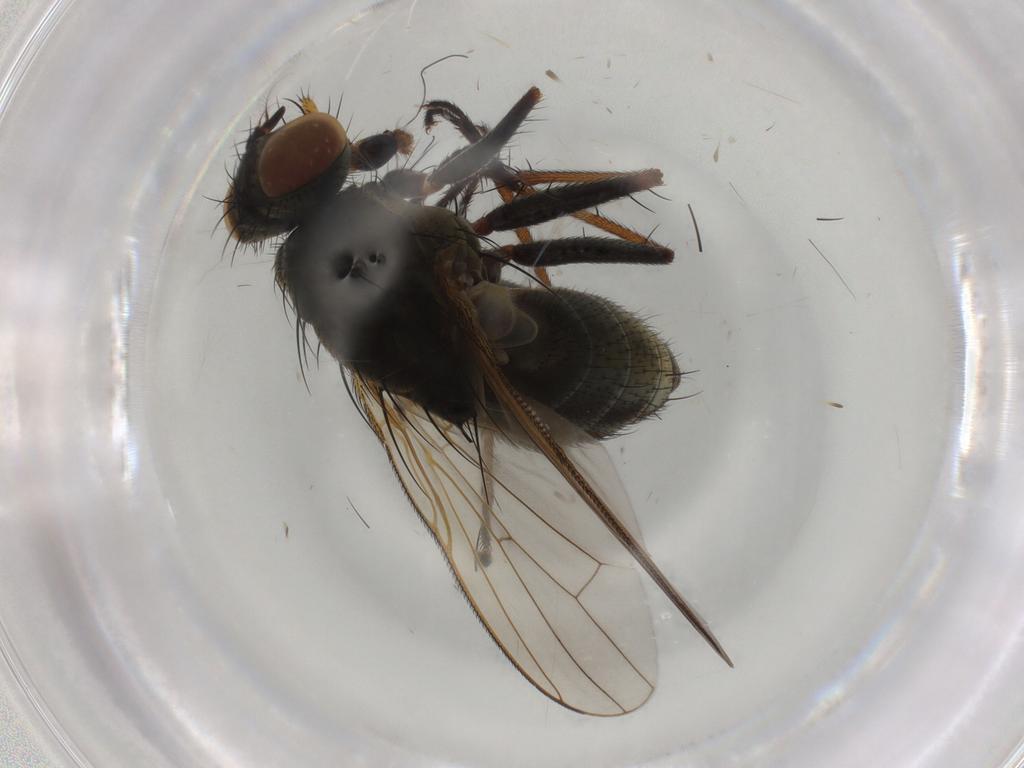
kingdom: Animalia
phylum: Arthropoda
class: Insecta
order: Diptera
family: Muscidae
